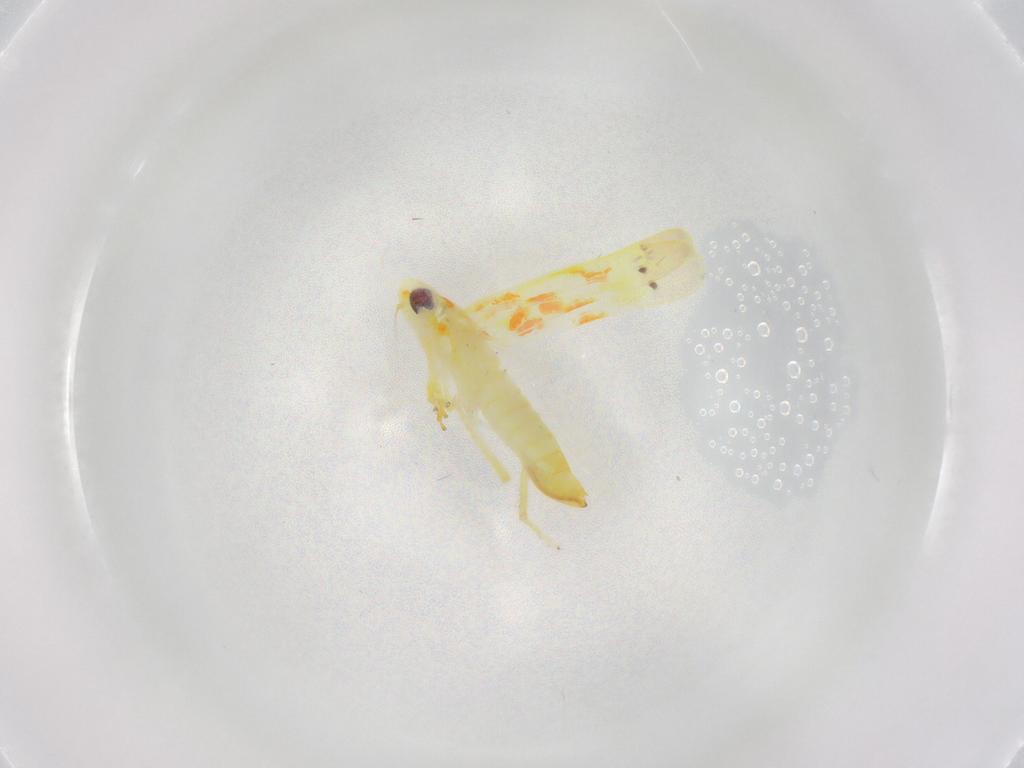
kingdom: Animalia
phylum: Arthropoda
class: Insecta
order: Hemiptera
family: Cicadellidae
